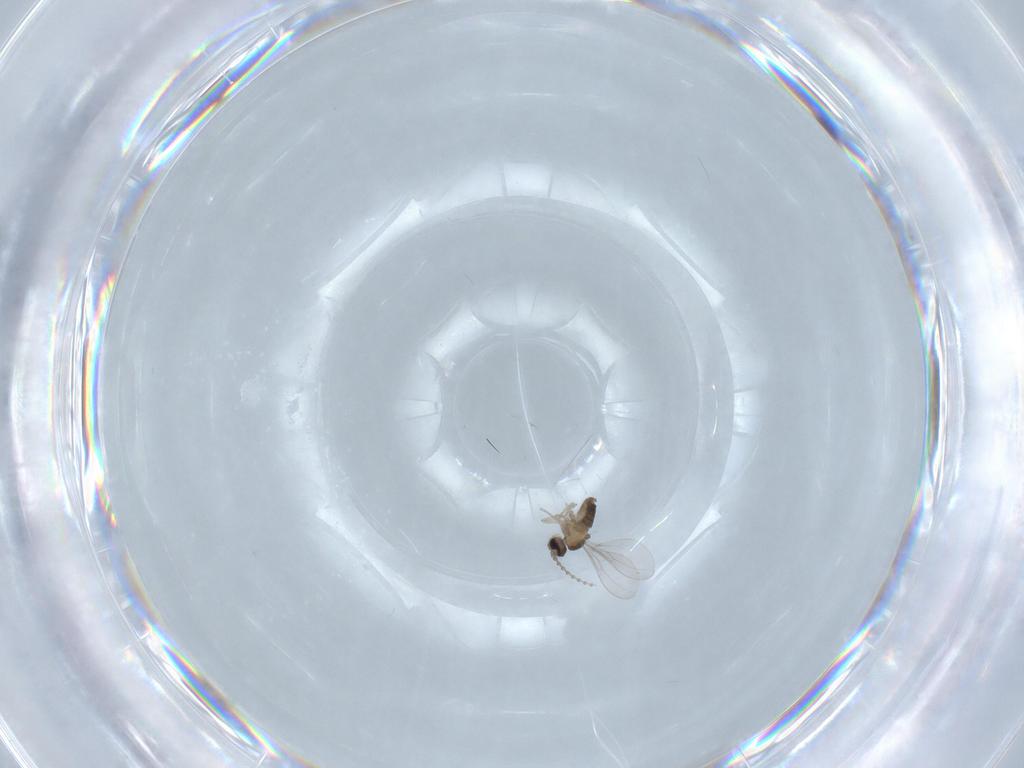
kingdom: Animalia
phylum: Arthropoda
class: Insecta
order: Diptera
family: Cecidomyiidae
